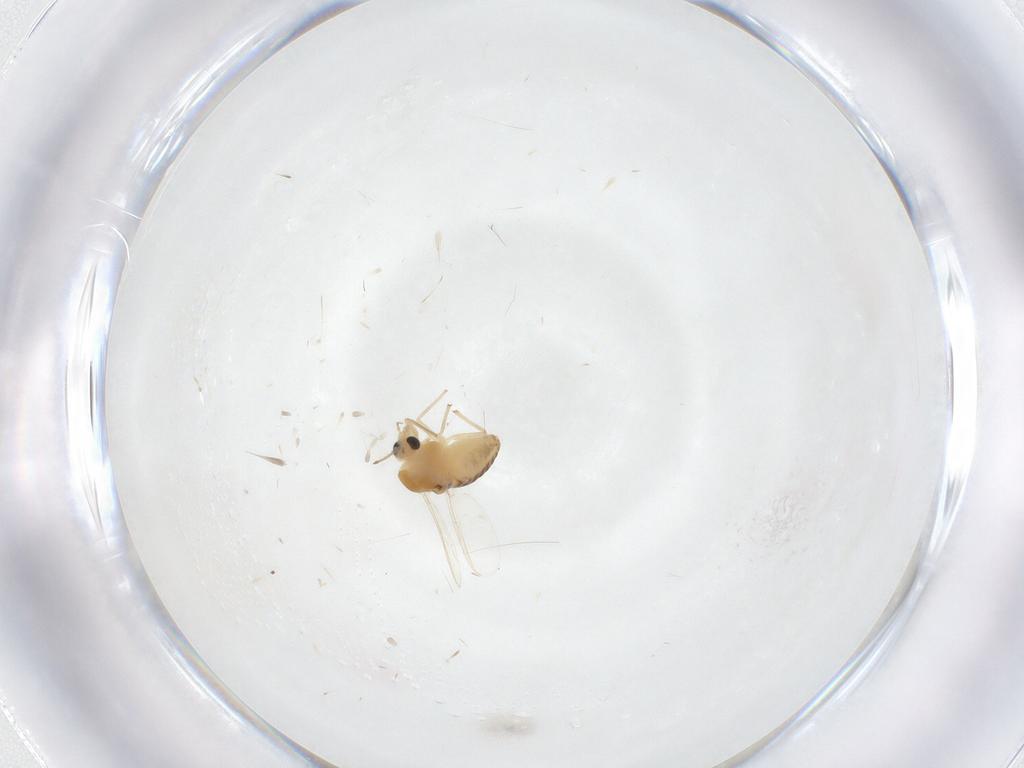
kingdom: Animalia
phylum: Arthropoda
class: Insecta
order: Diptera
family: Chironomidae
